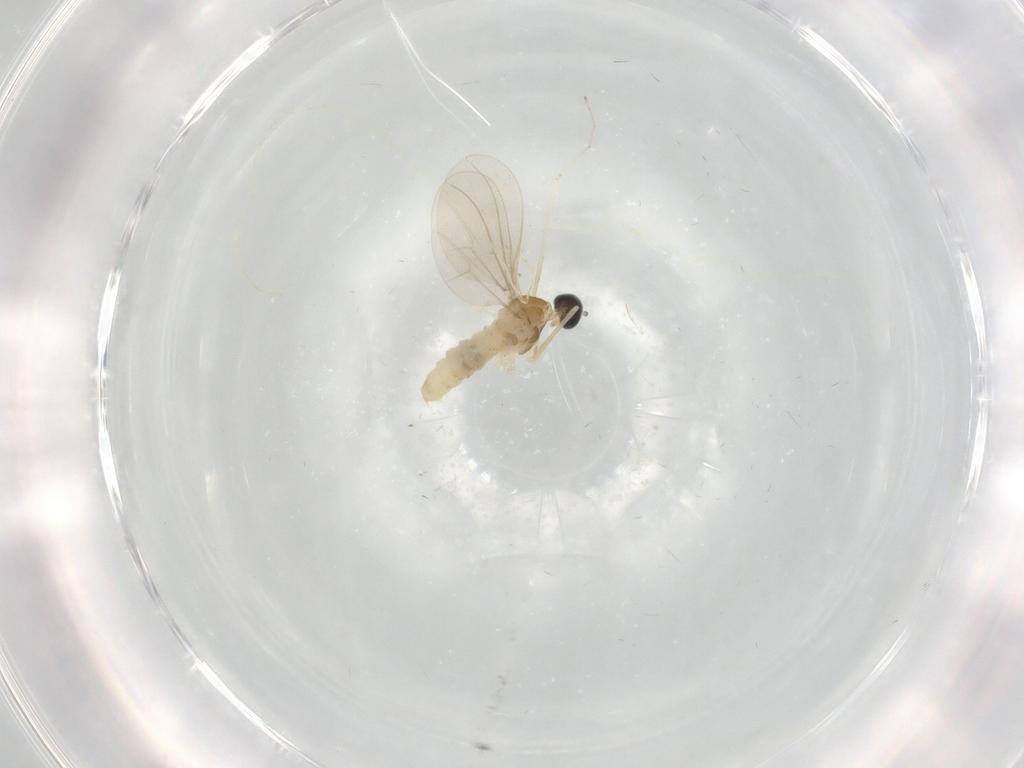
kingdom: Animalia
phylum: Arthropoda
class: Insecta
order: Diptera
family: Cecidomyiidae
